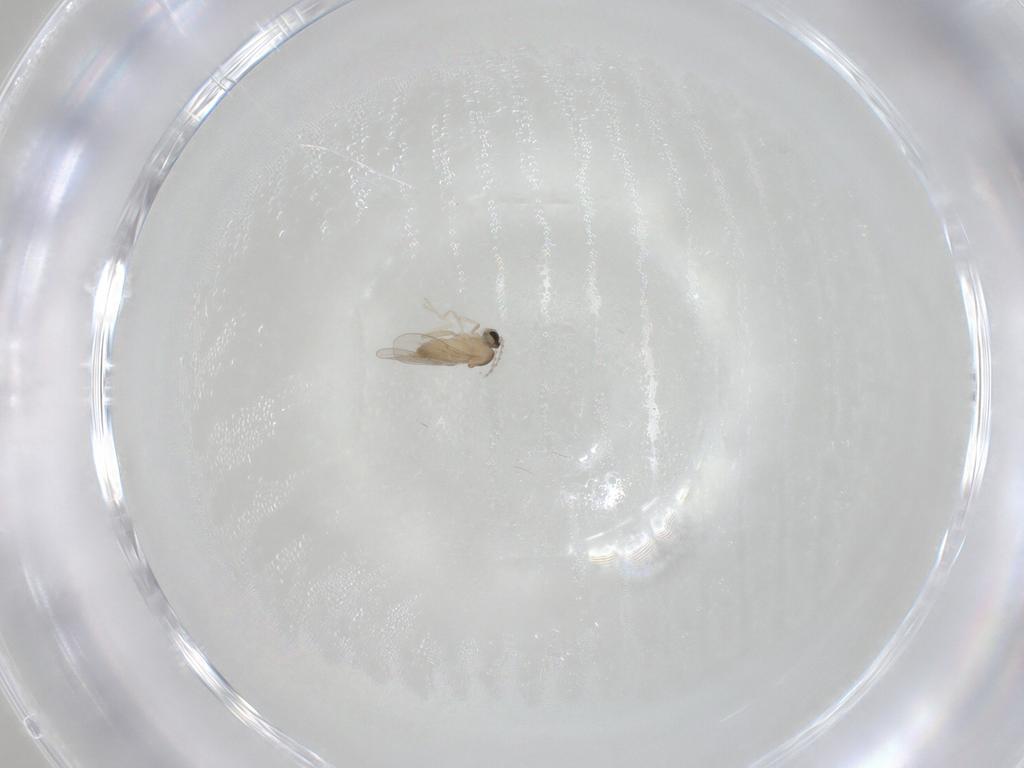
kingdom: Animalia
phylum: Arthropoda
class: Insecta
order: Diptera
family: Cecidomyiidae
